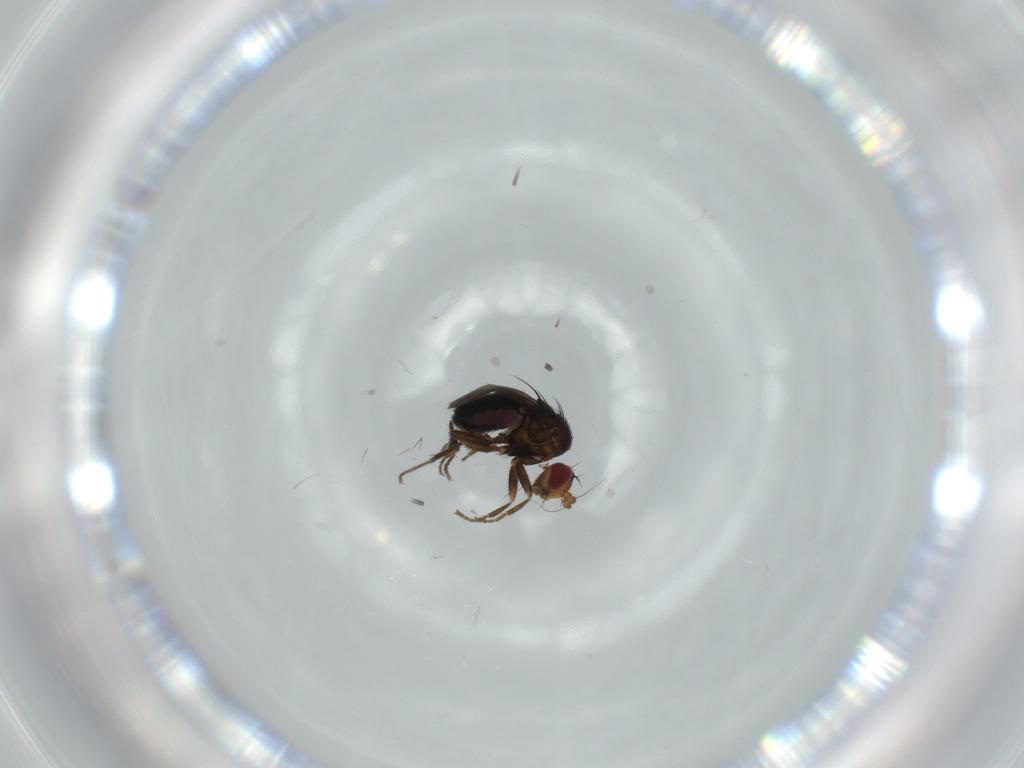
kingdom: Animalia
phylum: Arthropoda
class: Insecta
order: Diptera
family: Sphaeroceridae
